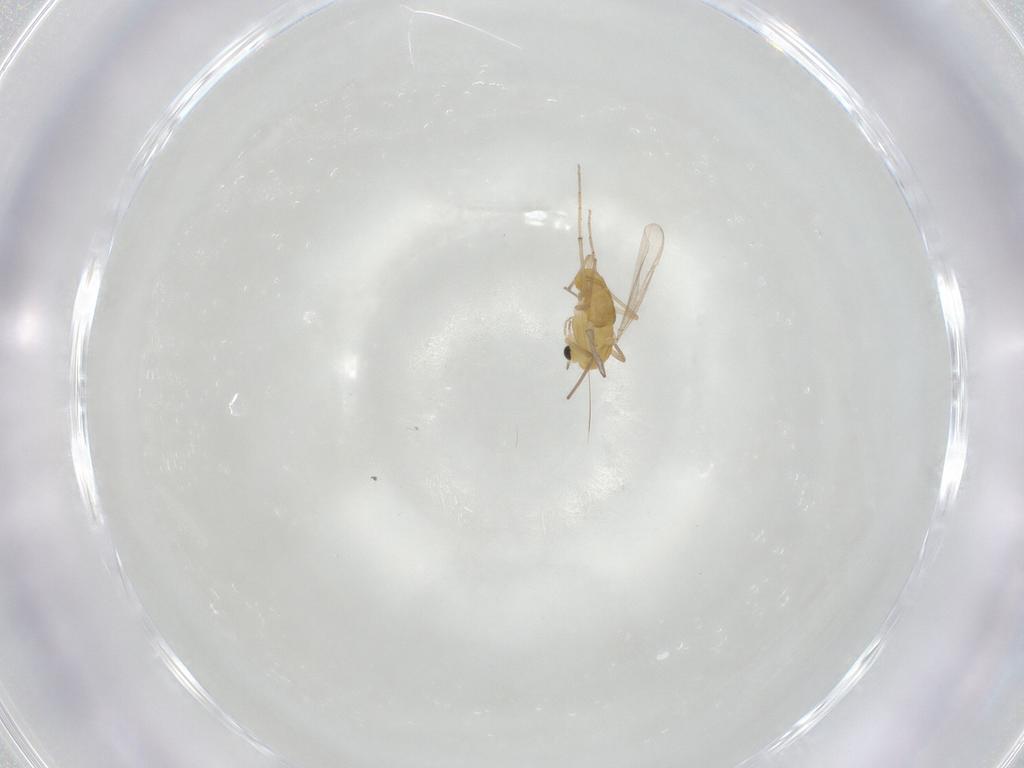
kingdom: Animalia
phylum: Arthropoda
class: Insecta
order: Diptera
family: Chironomidae
